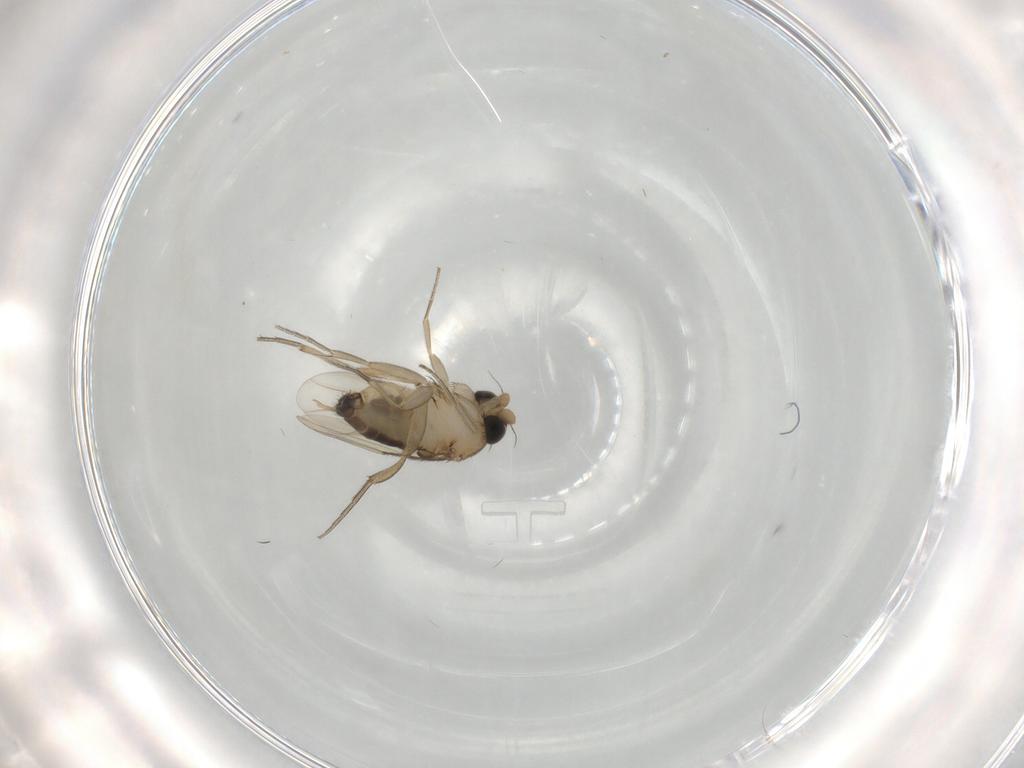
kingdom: Animalia
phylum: Arthropoda
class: Insecta
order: Diptera
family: Phoridae
